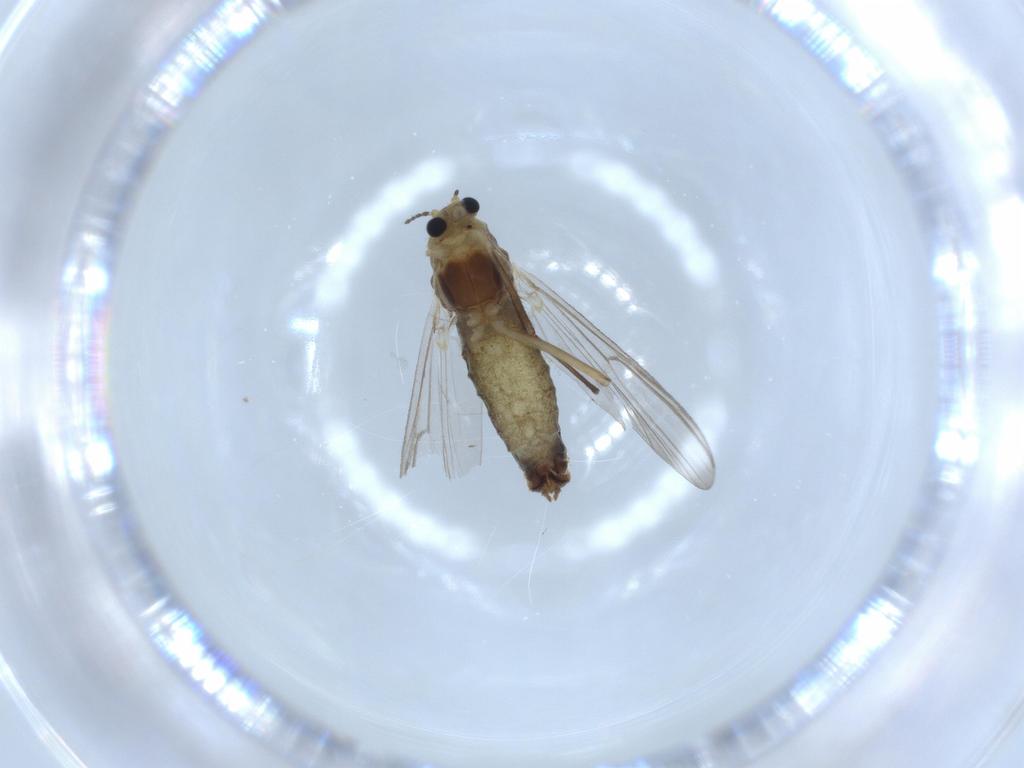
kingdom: Animalia
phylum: Arthropoda
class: Insecta
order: Diptera
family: Chironomidae
